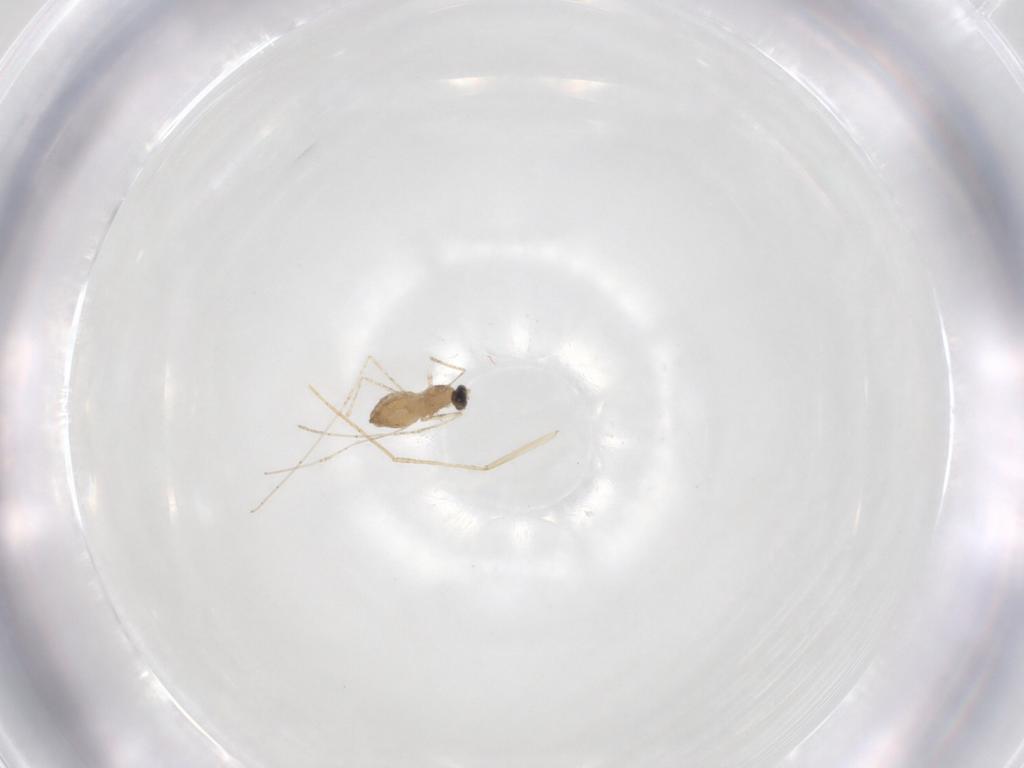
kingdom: Animalia
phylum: Arthropoda
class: Insecta
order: Diptera
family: Cecidomyiidae
